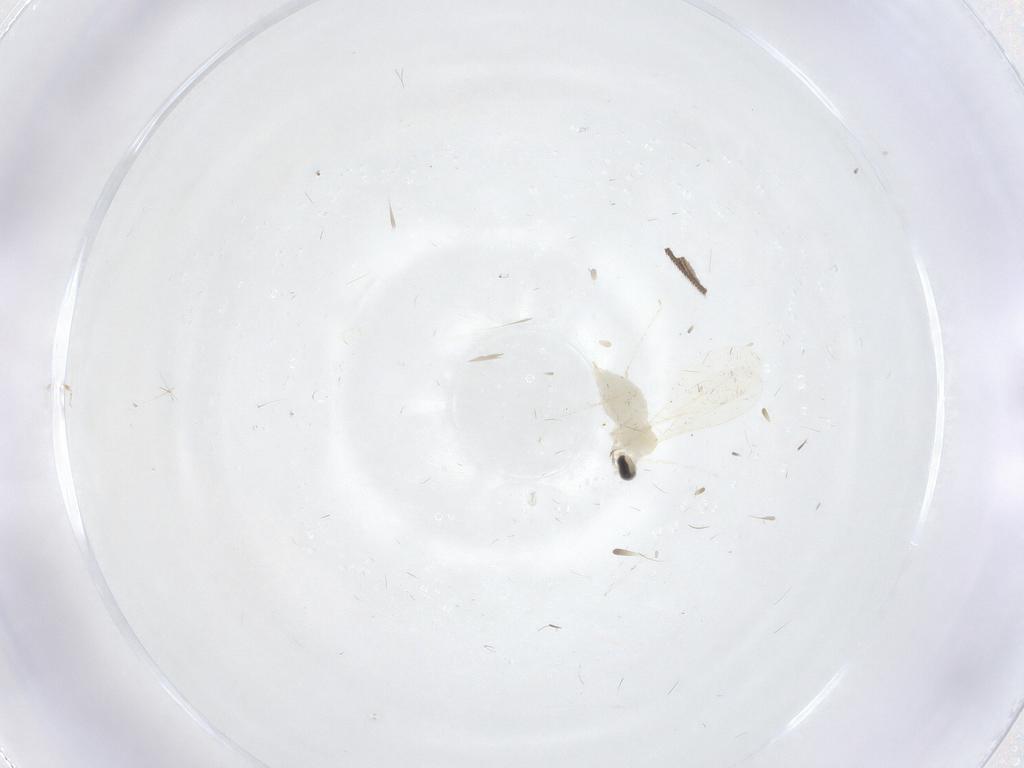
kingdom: Animalia
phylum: Arthropoda
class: Insecta
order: Diptera
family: Cecidomyiidae
